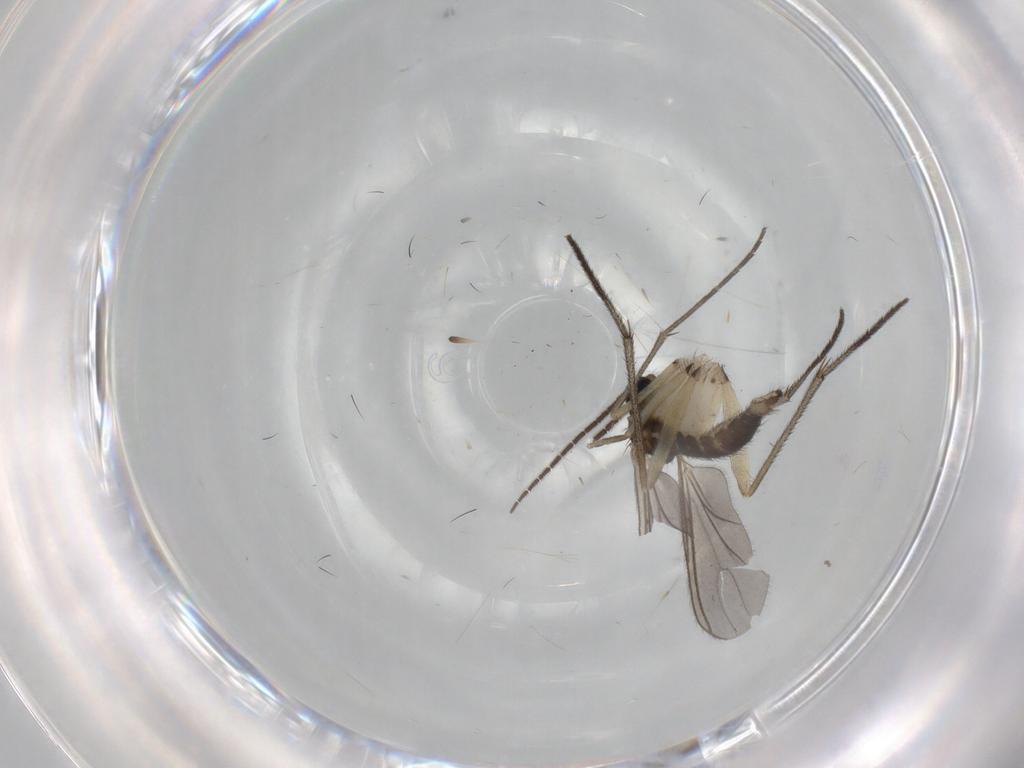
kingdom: Animalia
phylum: Arthropoda
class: Insecta
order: Diptera
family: Sciaridae
